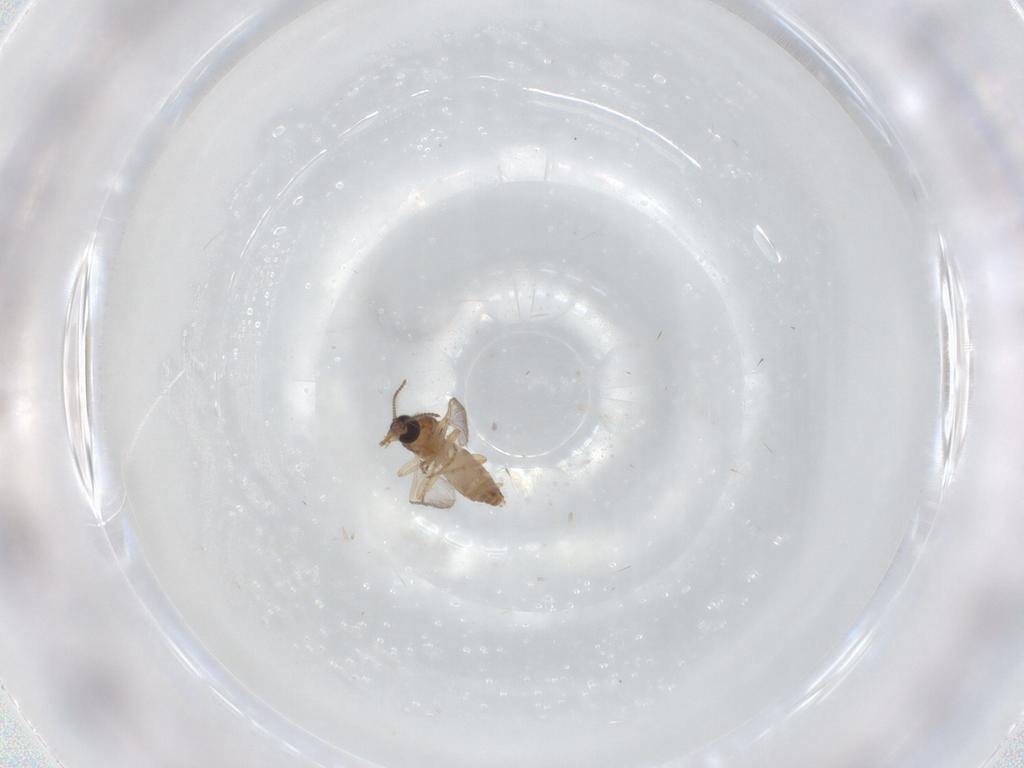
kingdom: Animalia
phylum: Arthropoda
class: Insecta
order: Diptera
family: Ceratopogonidae
